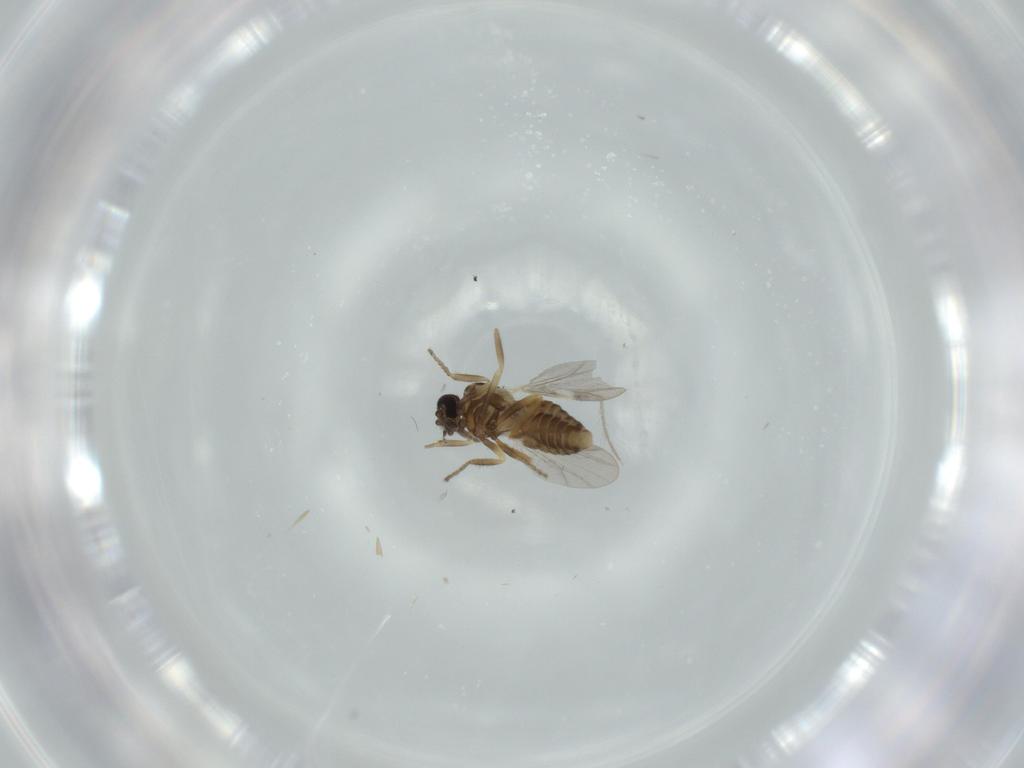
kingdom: Animalia
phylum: Arthropoda
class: Insecta
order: Diptera
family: Ceratopogonidae
